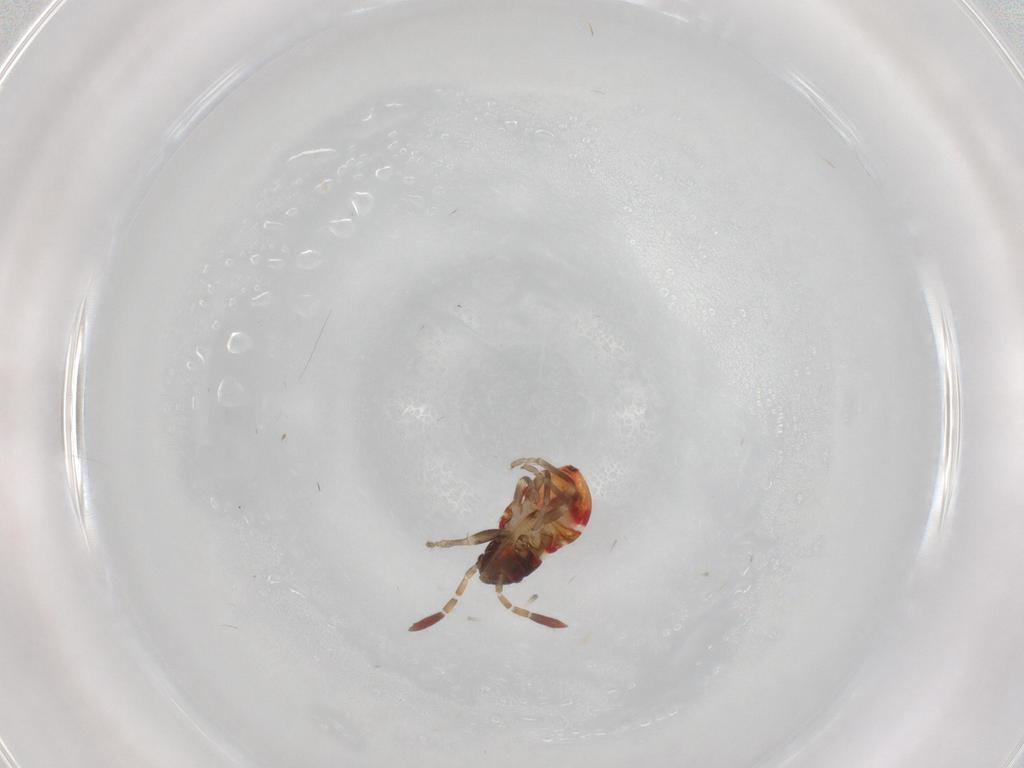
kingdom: Animalia
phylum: Arthropoda
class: Insecta
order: Hemiptera
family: Rhyparochromidae
